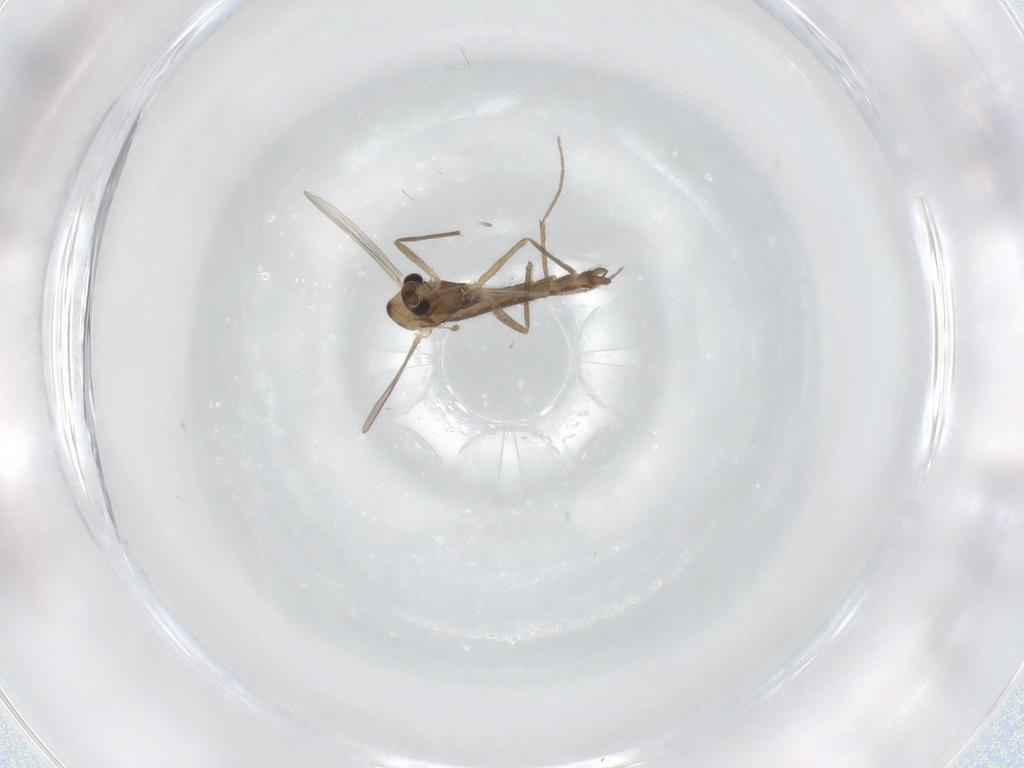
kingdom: Animalia
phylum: Arthropoda
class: Insecta
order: Diptera
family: Chironomidae
